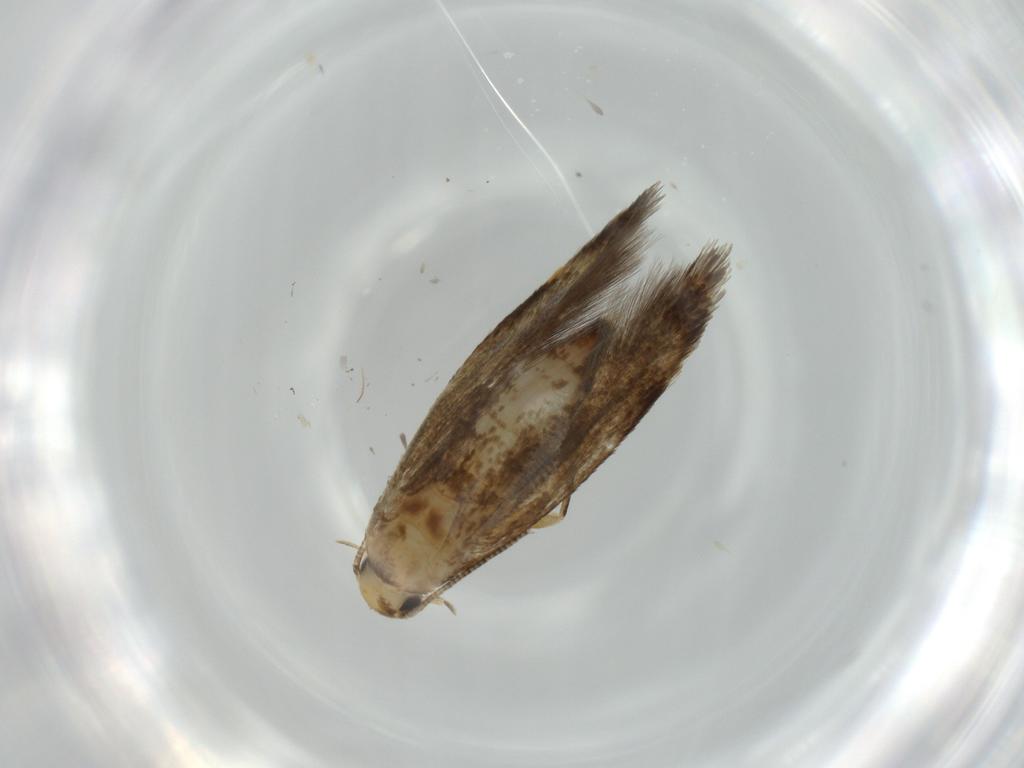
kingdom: Animalia
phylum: Arthropoda
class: Insecta
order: Lepidoptera
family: Tineidae
